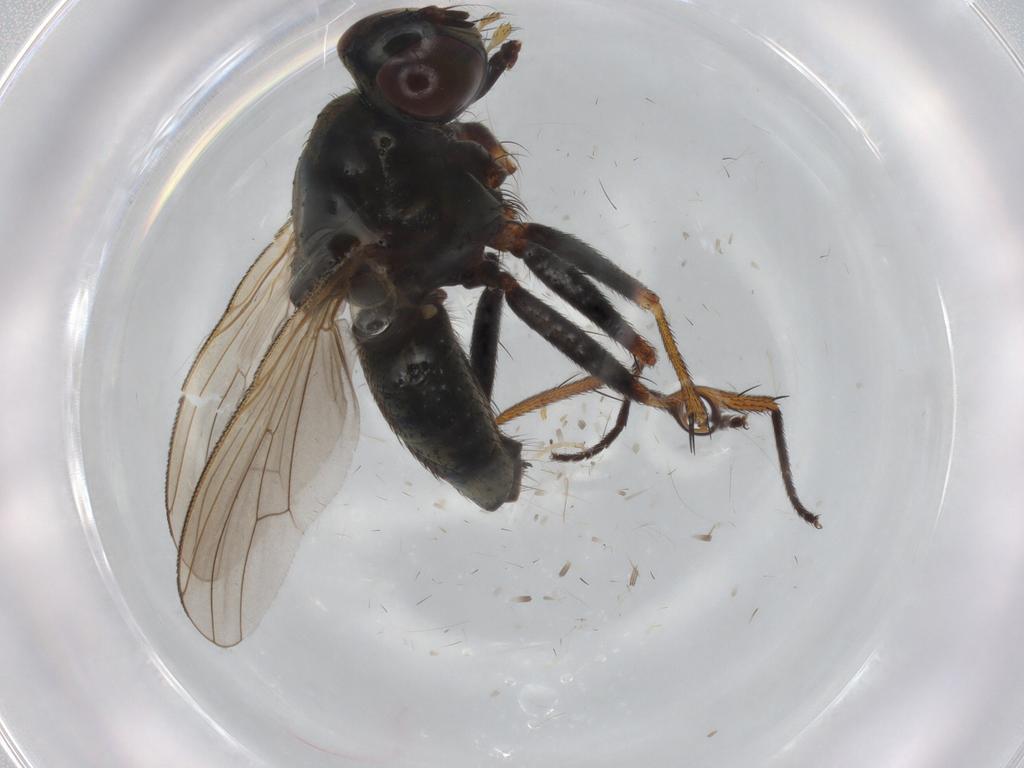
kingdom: Animalia
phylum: Arthropoda
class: Insecta
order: Diptera
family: Muscidae
